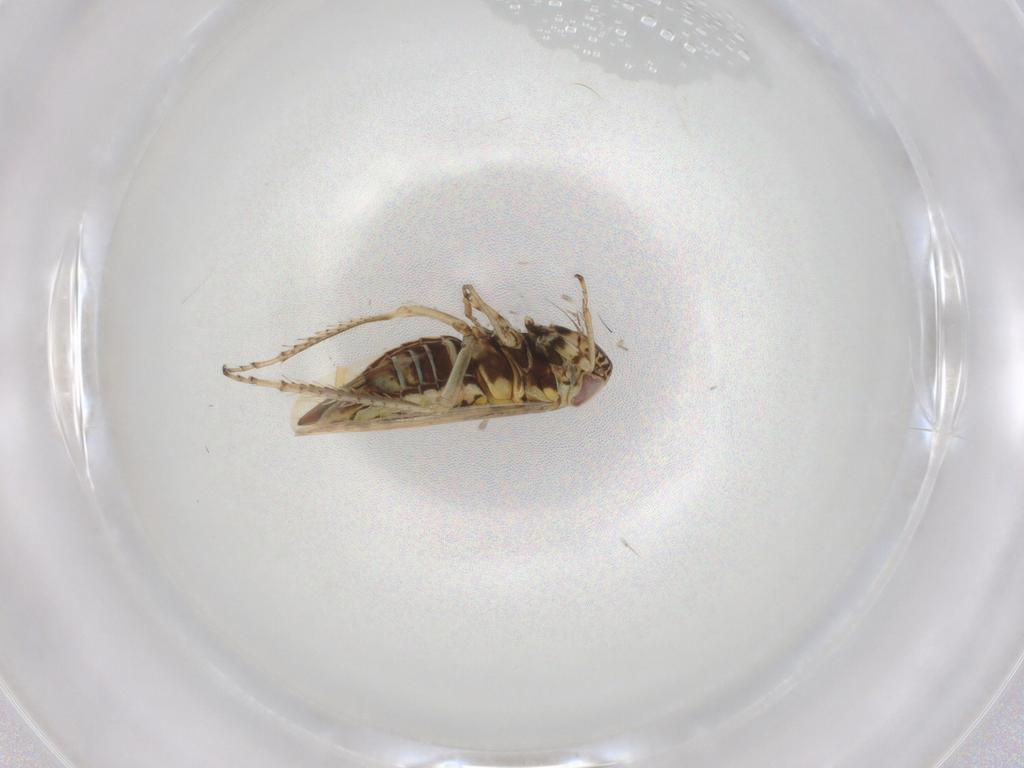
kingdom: Animalia
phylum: Arthropoda
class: Insecta
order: Hemiptera
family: Cicadellidae
